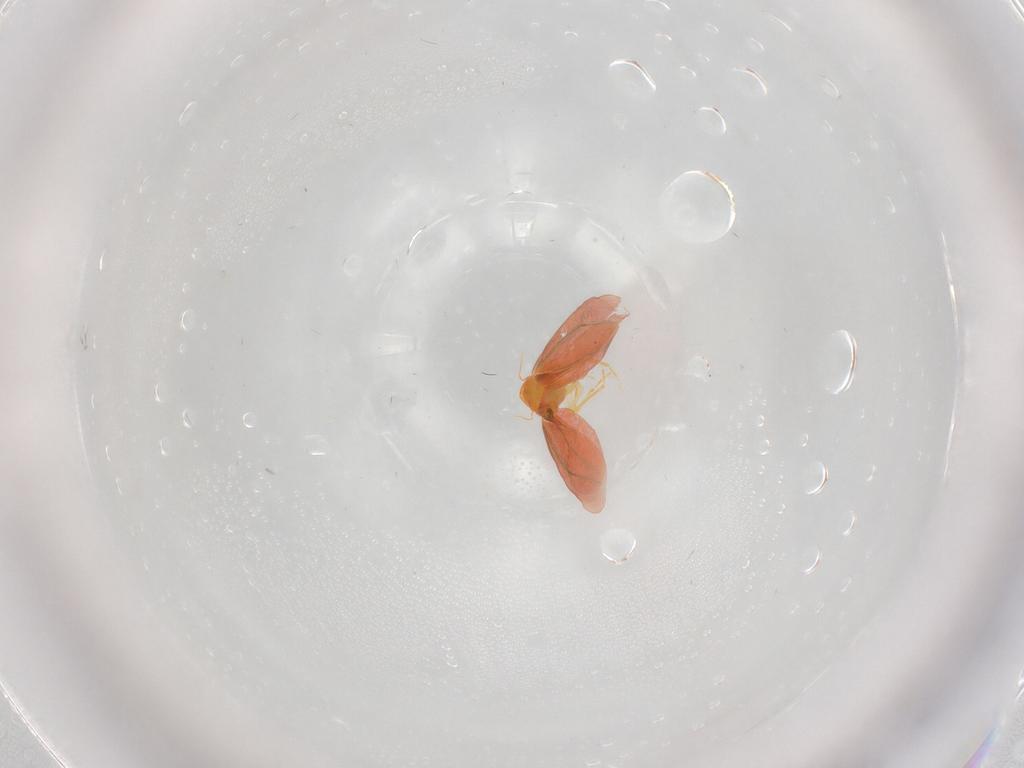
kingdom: Animalia
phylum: Arthropoda
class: Insecta
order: Hemiptera
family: Aleyrodidae
